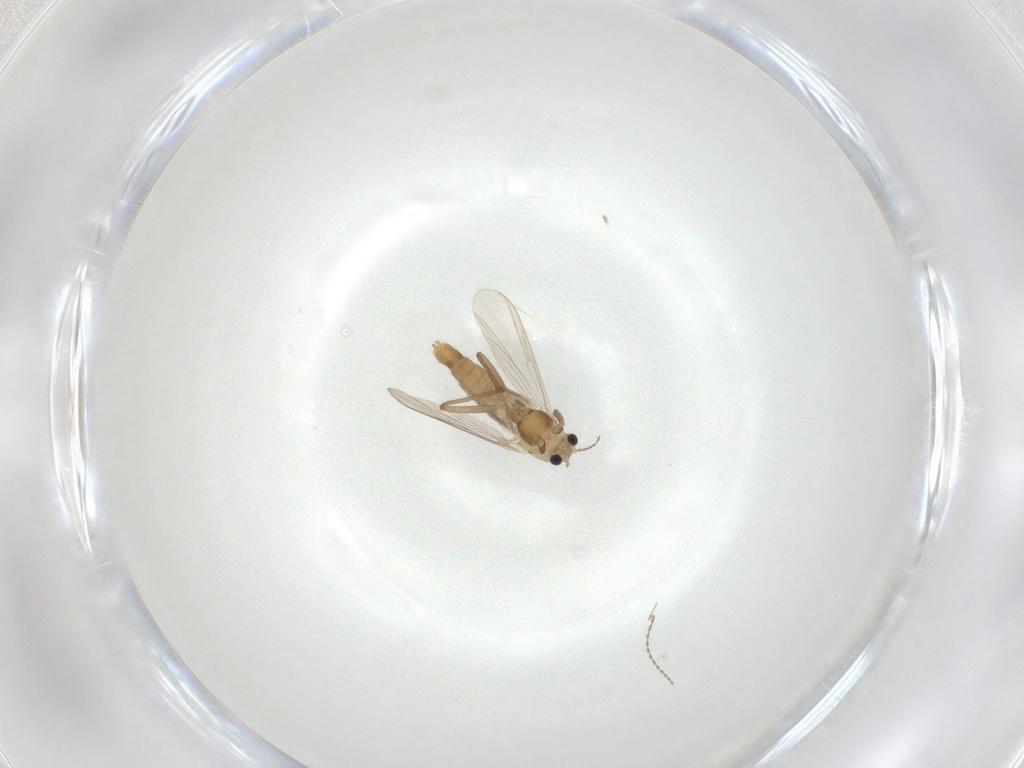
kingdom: Animalia
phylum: Arthropoda
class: Insecta
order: Diptera
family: Chironomidae
